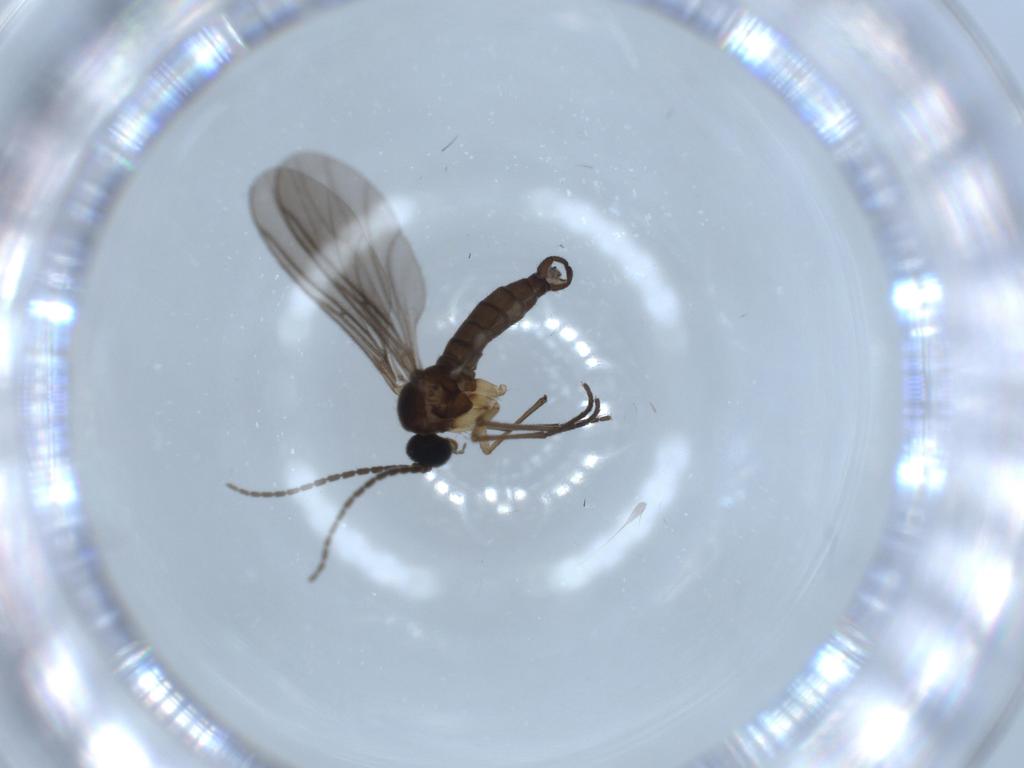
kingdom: Animalia
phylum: Arthropoda
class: Insecta
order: Diptera
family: Sciaridae
